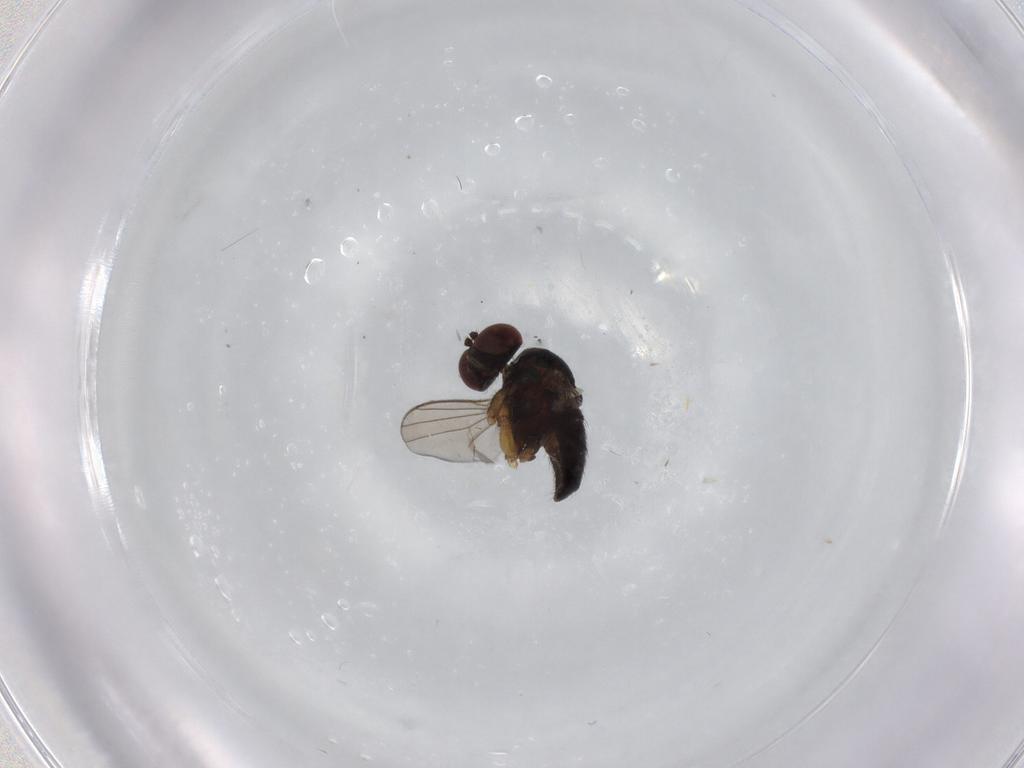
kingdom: Animalia
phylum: Arthropoda
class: Insecta
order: Diptera
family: Dolichopodidae
